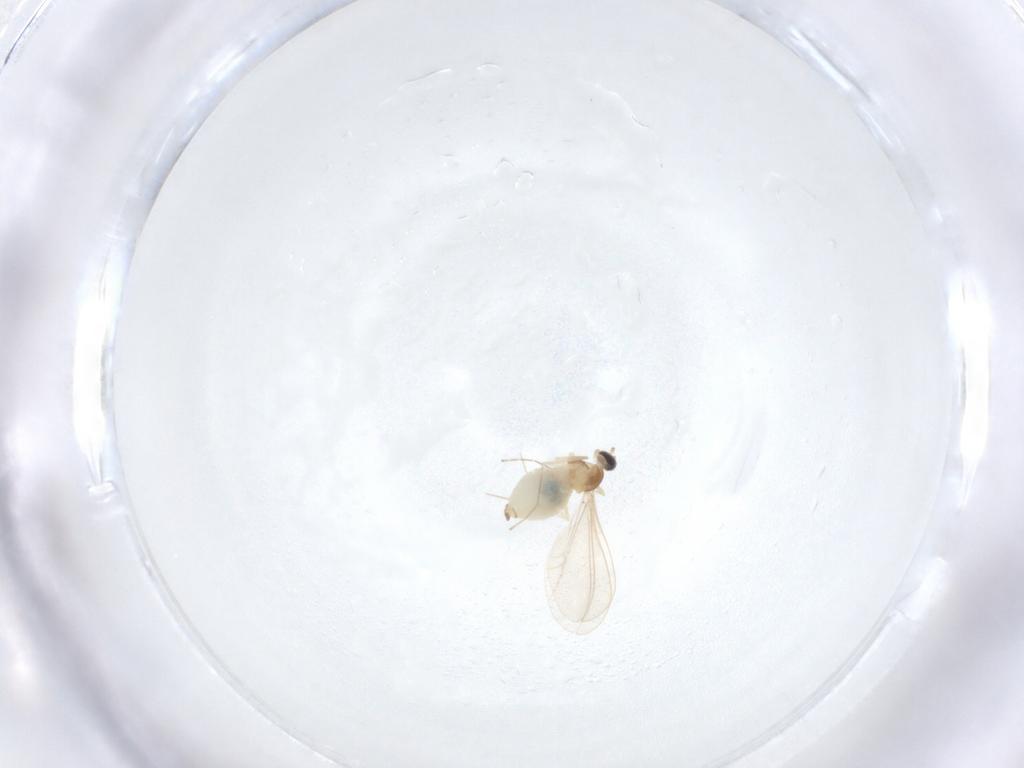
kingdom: Animalia
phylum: Arthropoda
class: Insecta
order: Diptera
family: Cecidomyiidae
